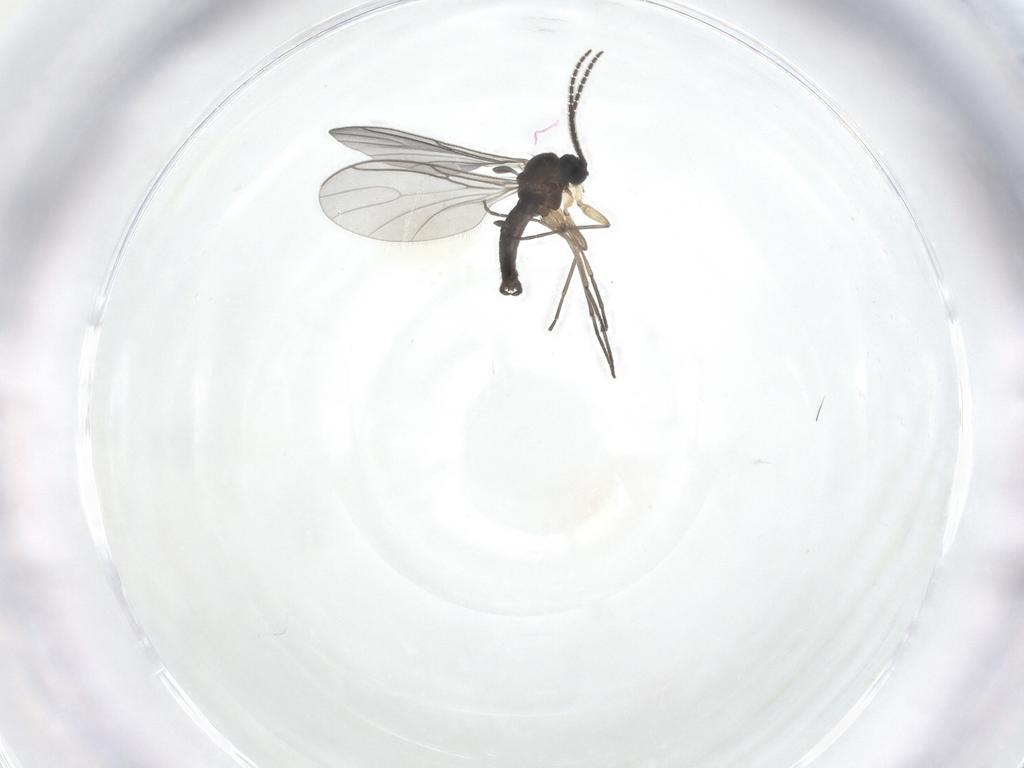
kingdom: Animalia
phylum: Arthropoda
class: Insecta
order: Diptera
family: Sciaridae
